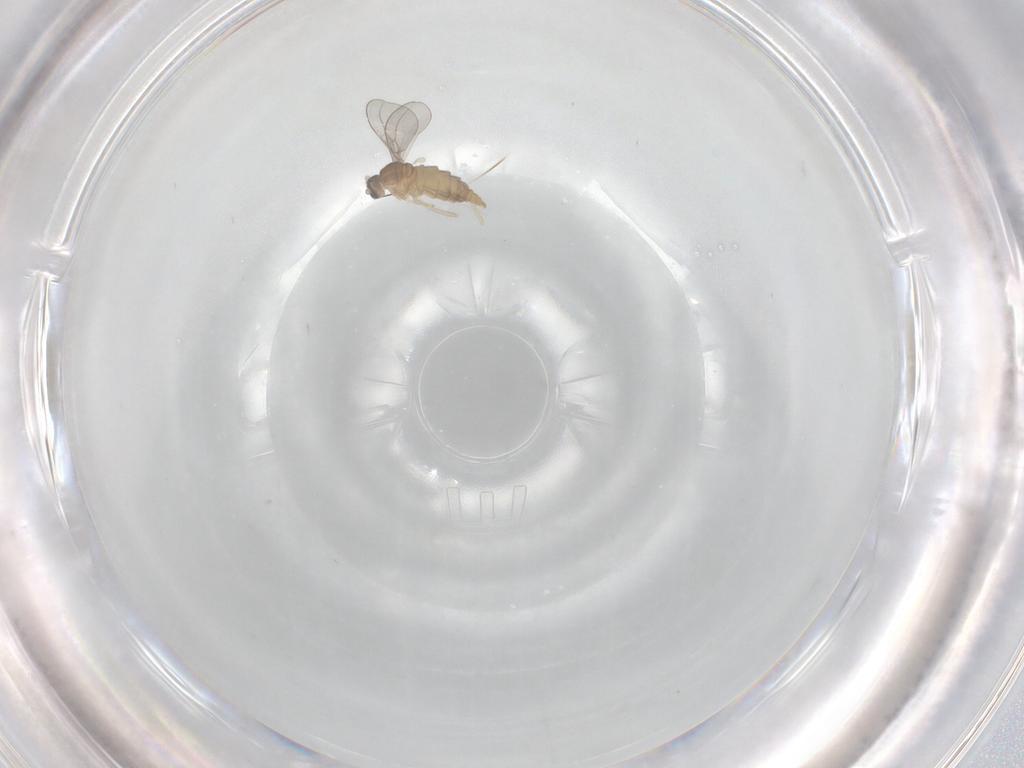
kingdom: Animalia
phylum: Arthropoda
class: Insecta
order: Diptera
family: Cecidomyiidae
